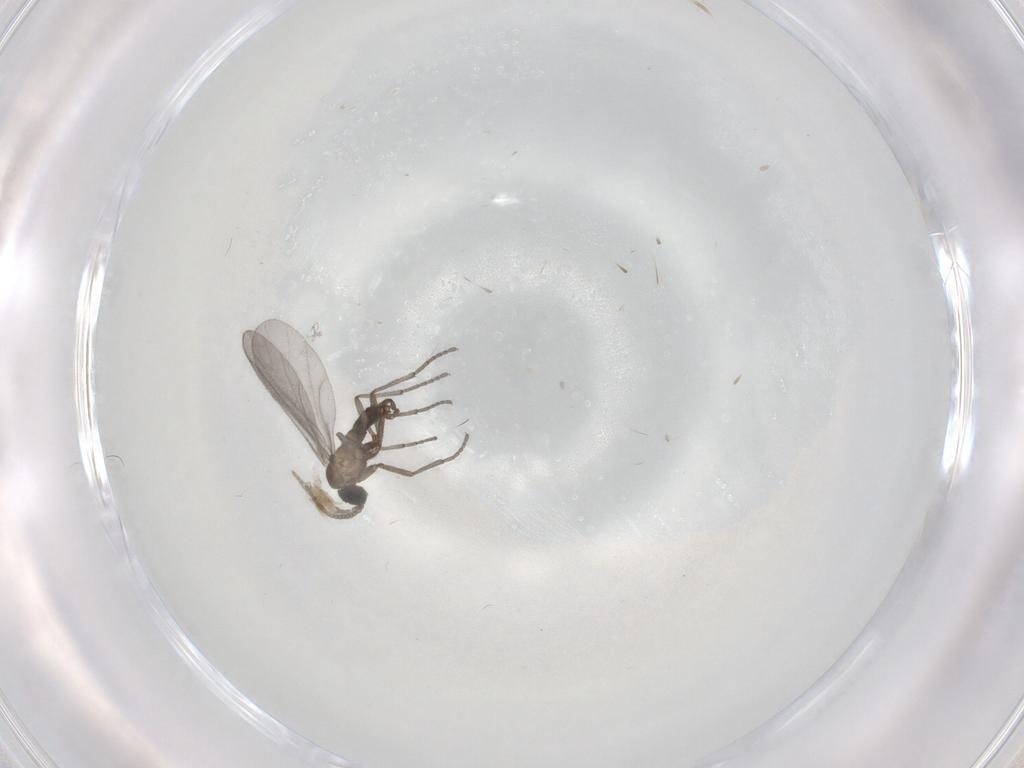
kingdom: Animalia
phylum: Arthropoda
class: Insecta
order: Diptera
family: Sciaridae
